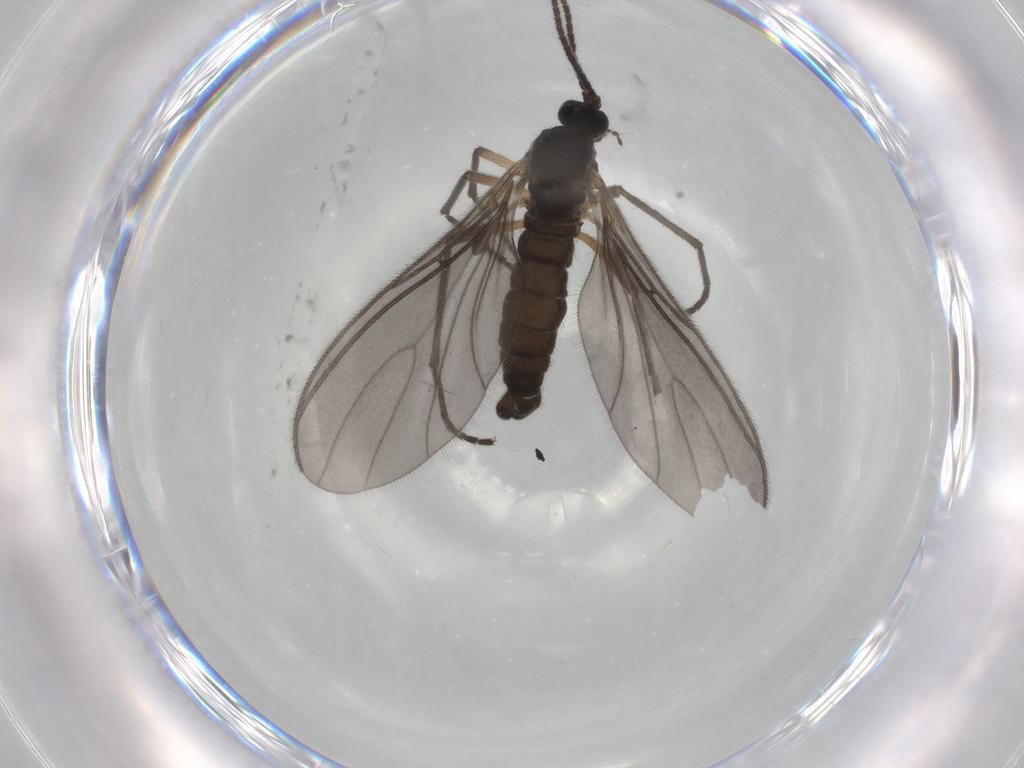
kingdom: Animalia
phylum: Arthropoda
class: Insecta
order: Diptera
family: Sciaridae
